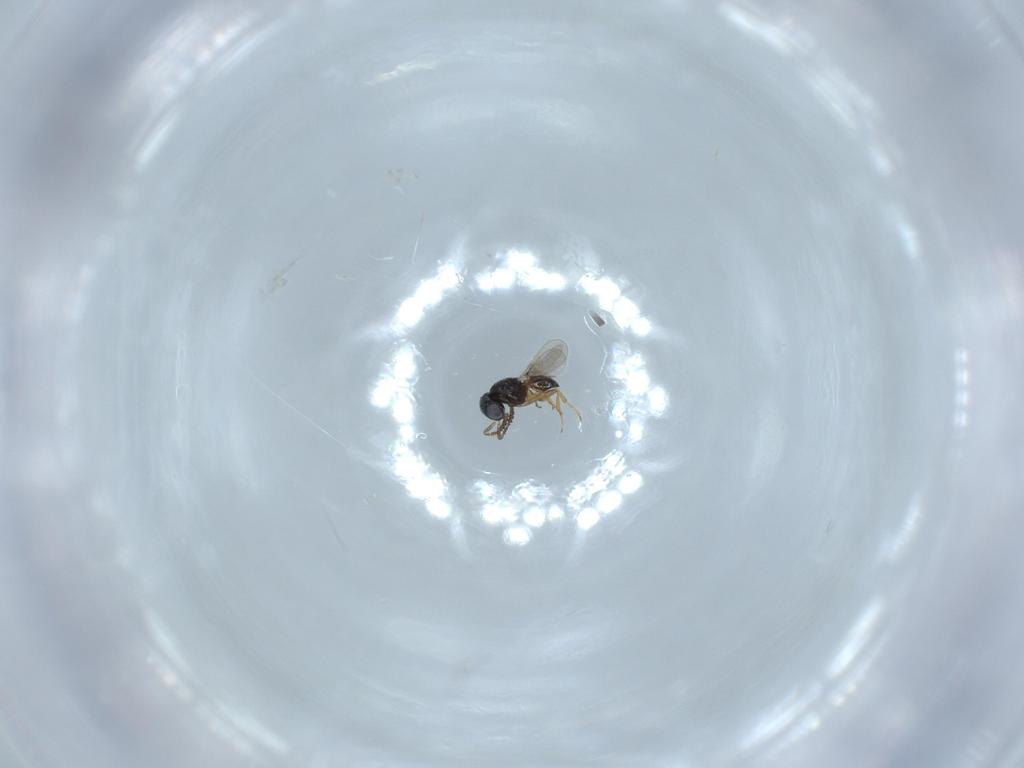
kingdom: Animalia
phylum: Arthropoda
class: Insecta
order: Hymenoptera
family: Scelionidae
